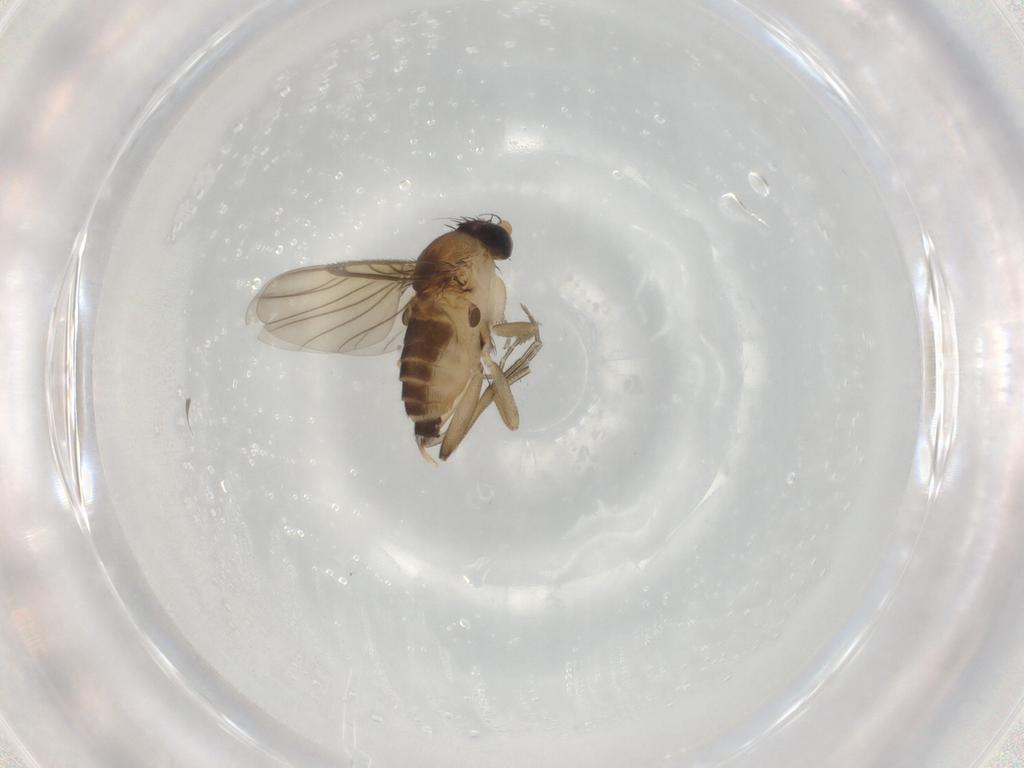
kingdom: Animalia
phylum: Arthropoda
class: Insecta
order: Diptera
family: Phoridae
